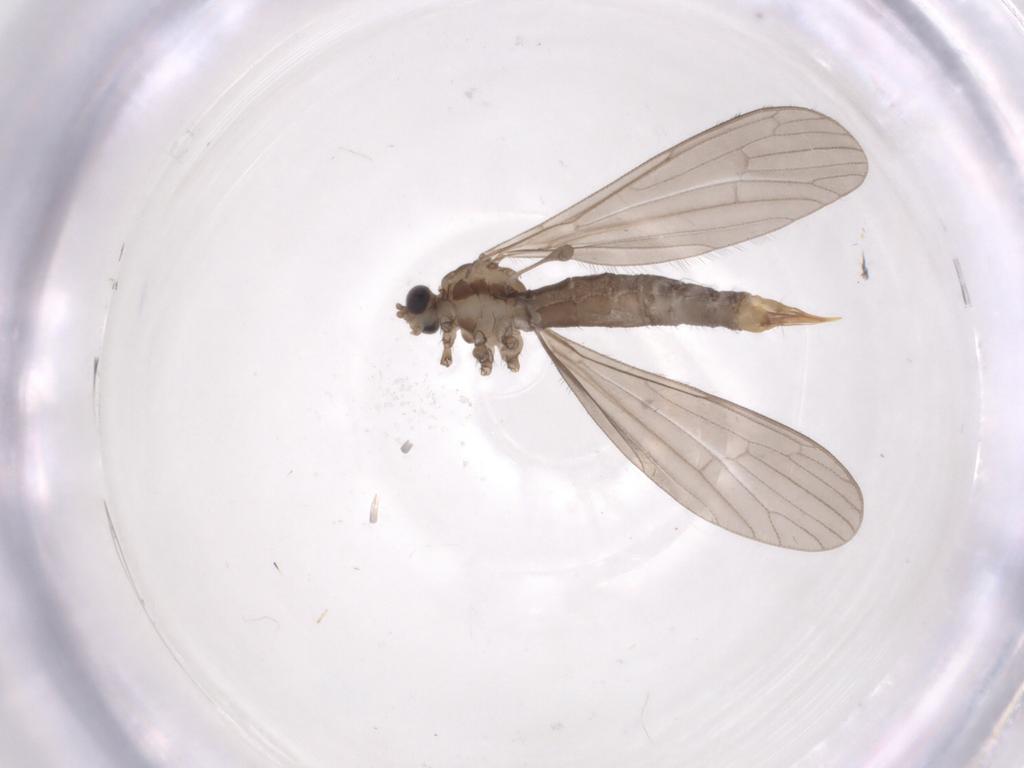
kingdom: Animalia
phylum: Arthropoda
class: Insecta
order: Diptera
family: Limoniidae
